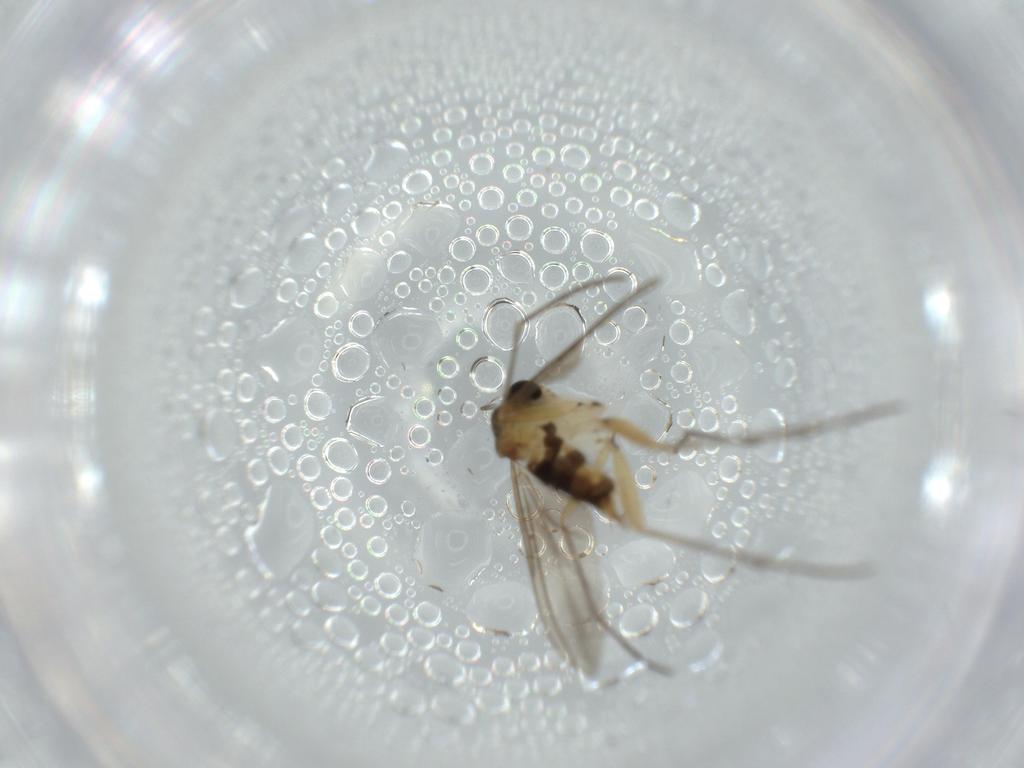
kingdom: Animalia
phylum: Arthropoda
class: Insecta
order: Diptera
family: Sciaridae
